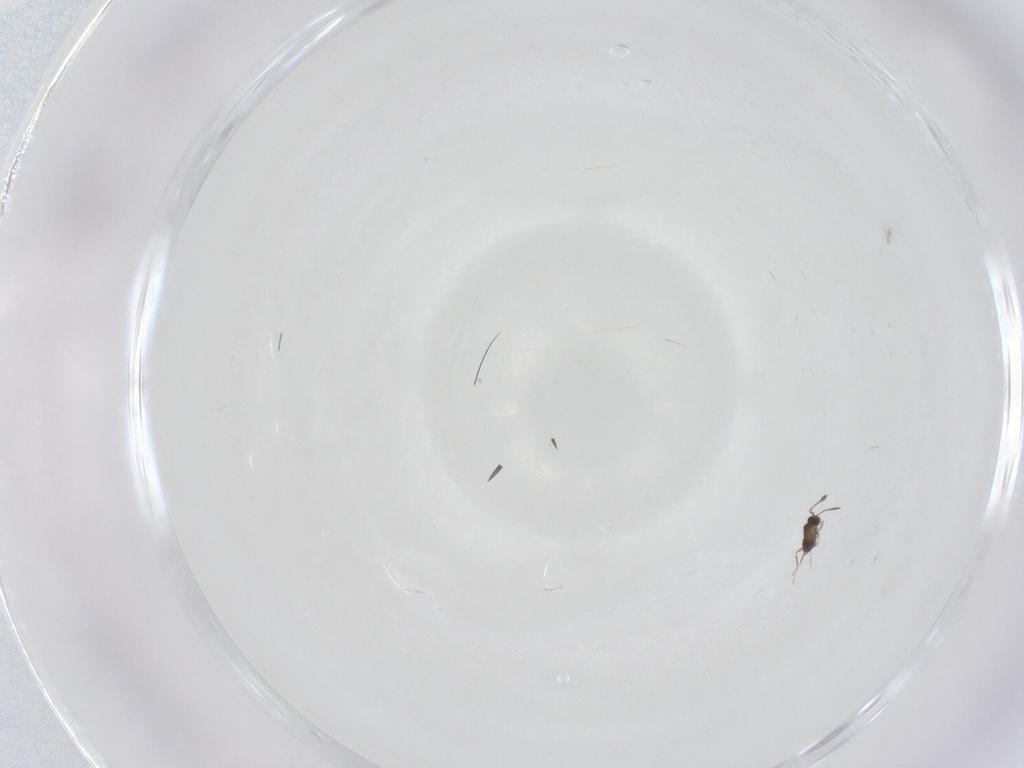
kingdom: Animalia
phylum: Arthropoda
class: Insecta
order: Hymenoptera
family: Mymaridae
